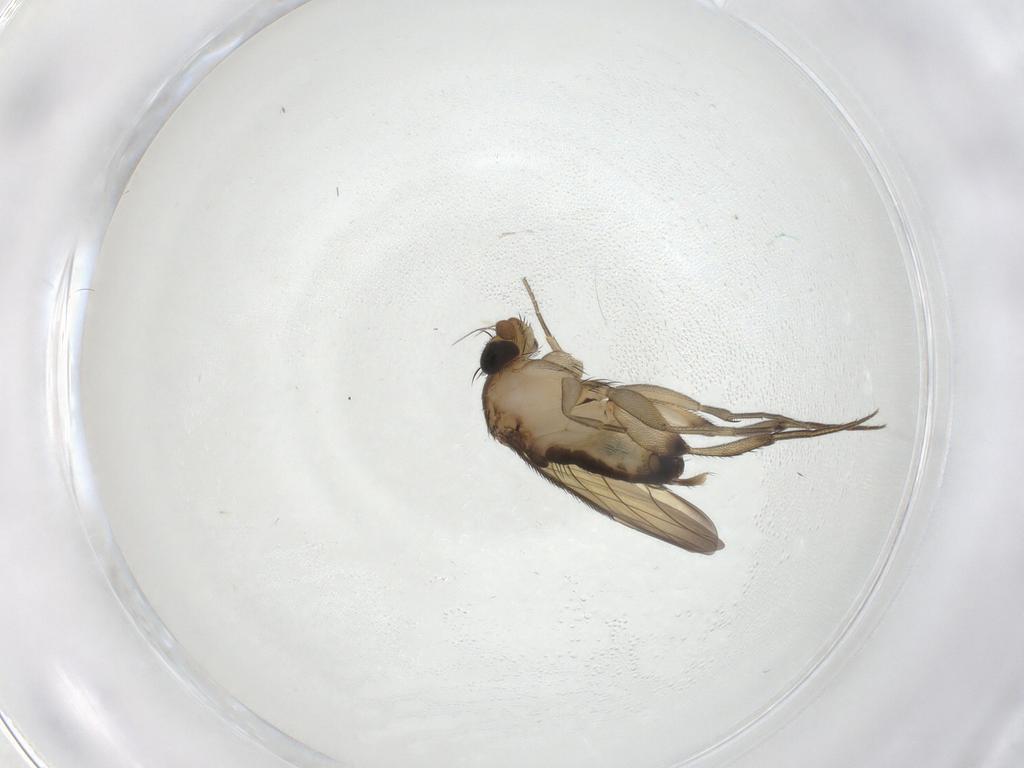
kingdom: Animalia
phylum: Arthropoda
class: Insecta
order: Diptera
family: Phoridae
